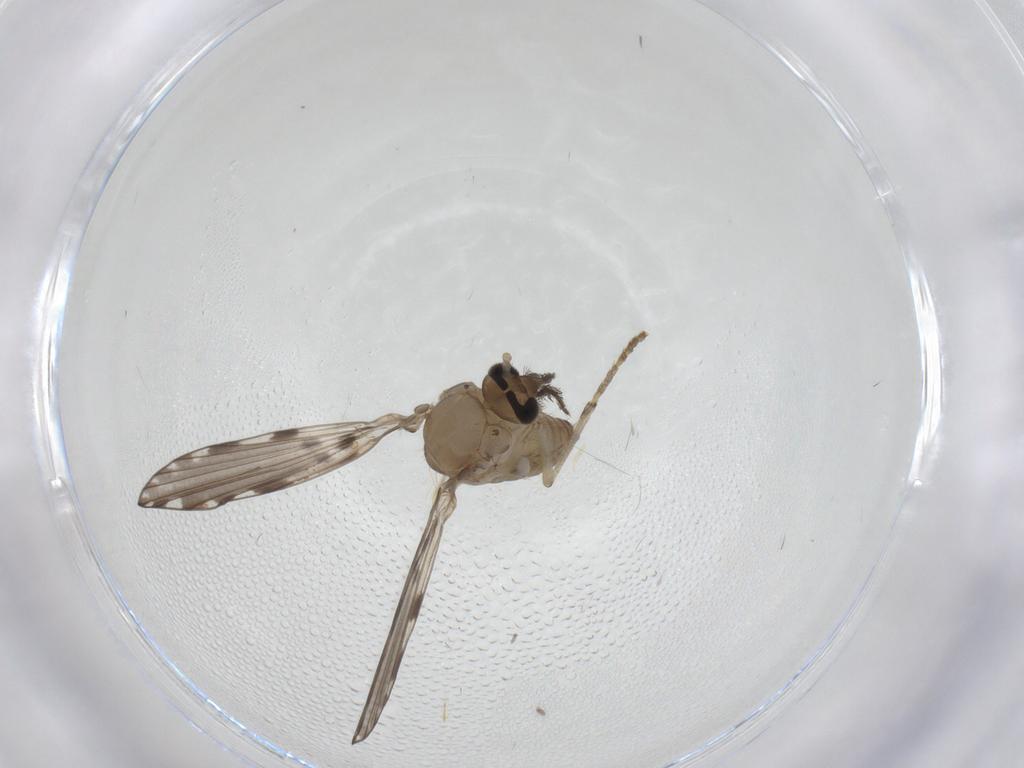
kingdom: Animalia
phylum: Arthropoda
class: Insecta
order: Diptera
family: Psychodidae
